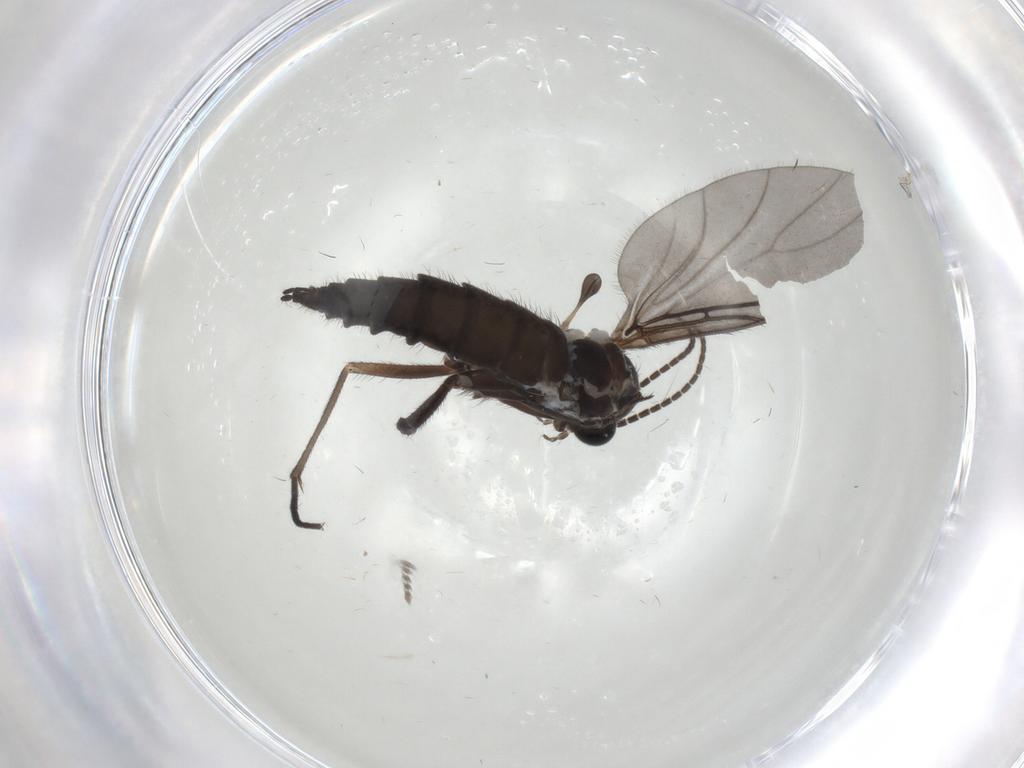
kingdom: Animalia
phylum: Arthropoda
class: Insecta
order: Diptera
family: Sciaridae
